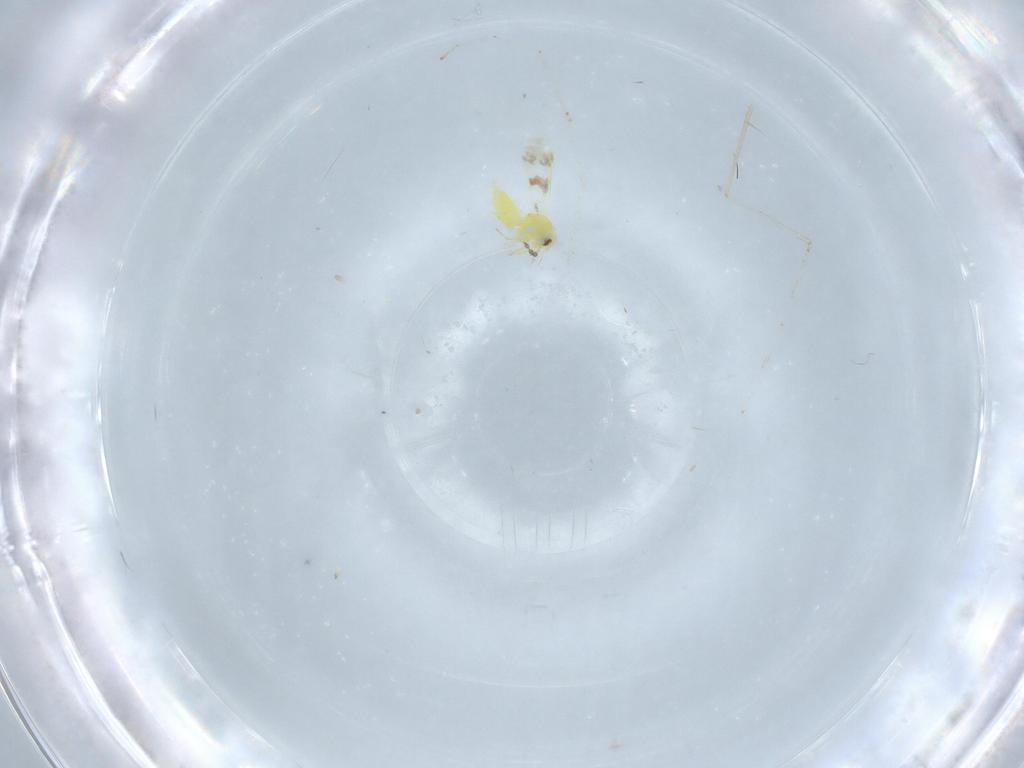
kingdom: Animalia
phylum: Arthropoda
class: Insecta
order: Hemiptera
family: Aleyrodidae
